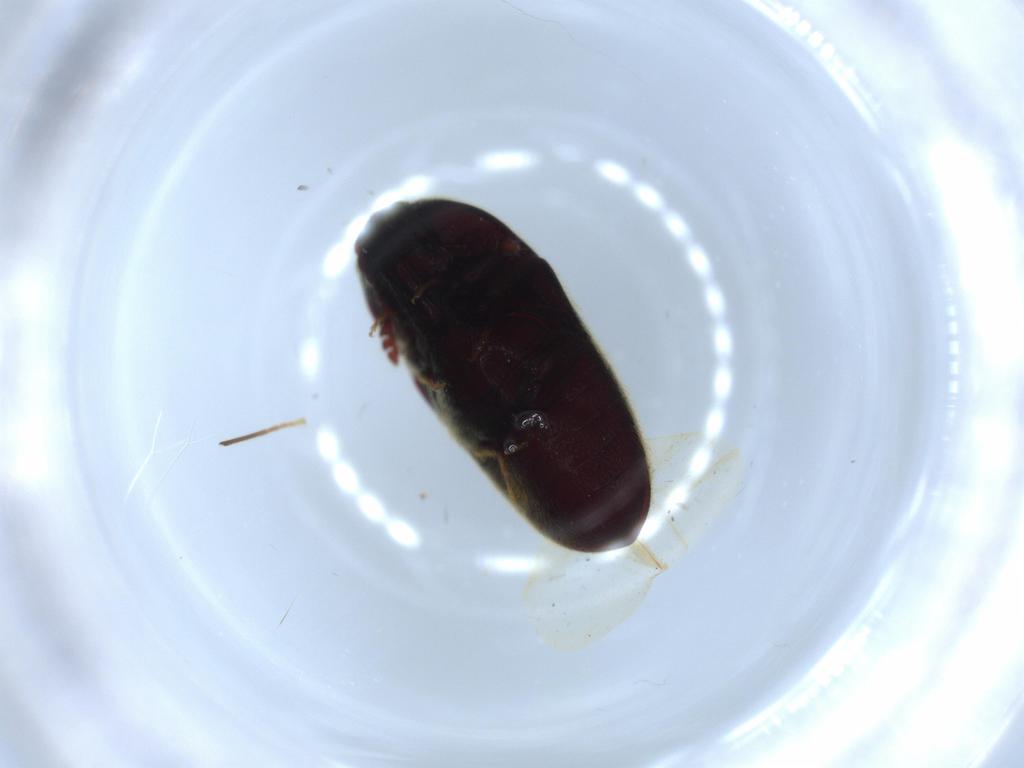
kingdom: Animalia
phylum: Arthropoda
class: Insecta
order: Coleoptera
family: Throscidae
